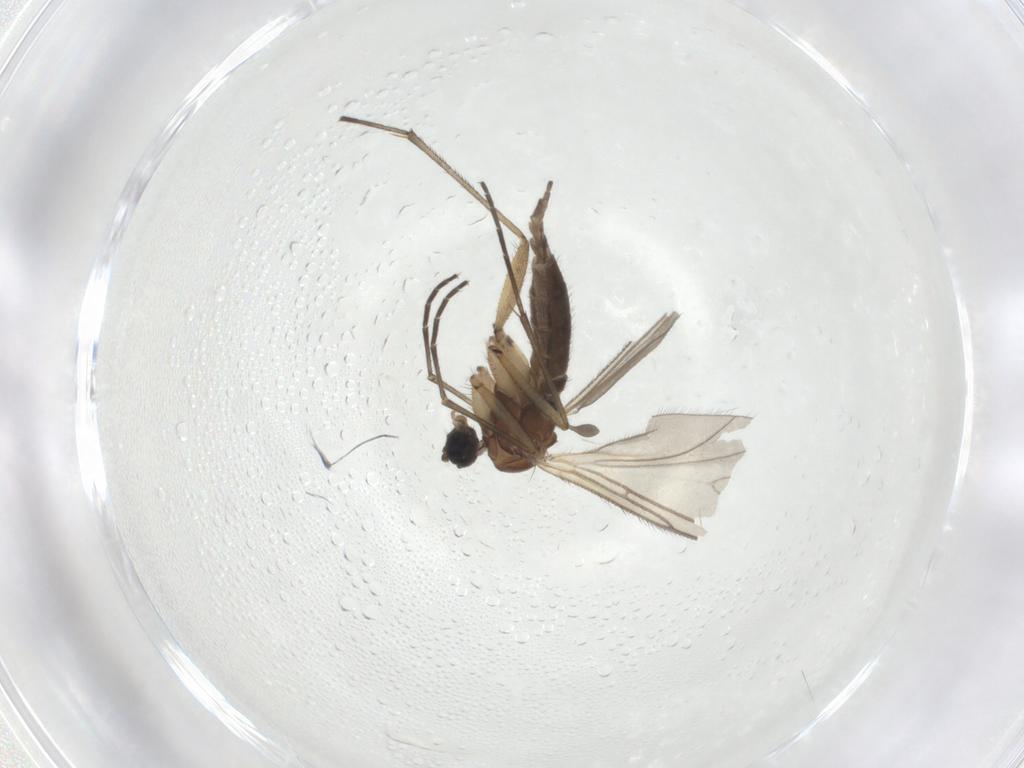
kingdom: Animalia
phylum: Arthropoda
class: Insecta
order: Diptera
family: Sciaridae
